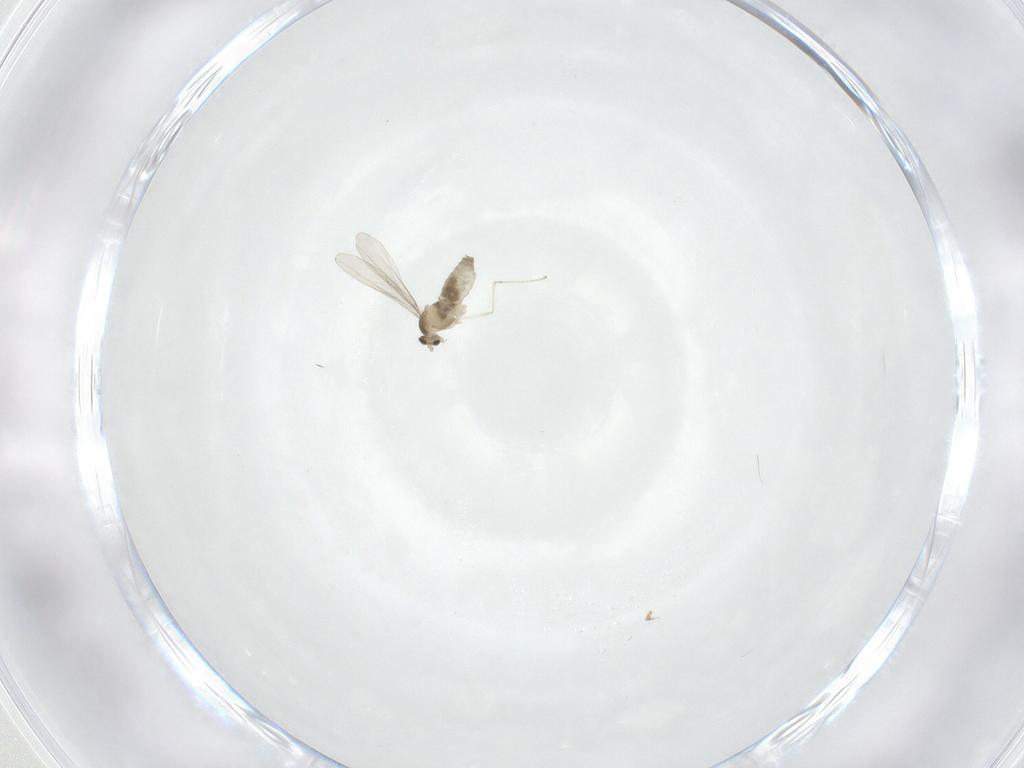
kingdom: Animalia
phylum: Arthropoda
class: Insecta
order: Diptera
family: Cecidomyiidae
